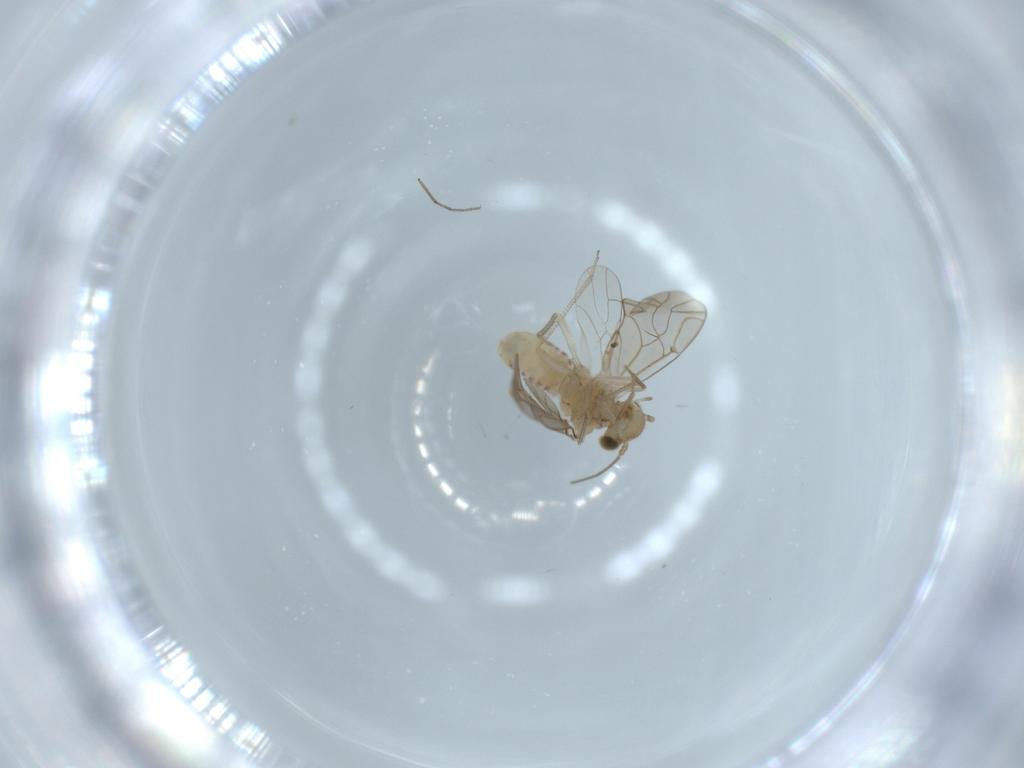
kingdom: Animalia
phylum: Arthropoda
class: Insecta
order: Psocodea
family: Lachesillidae
